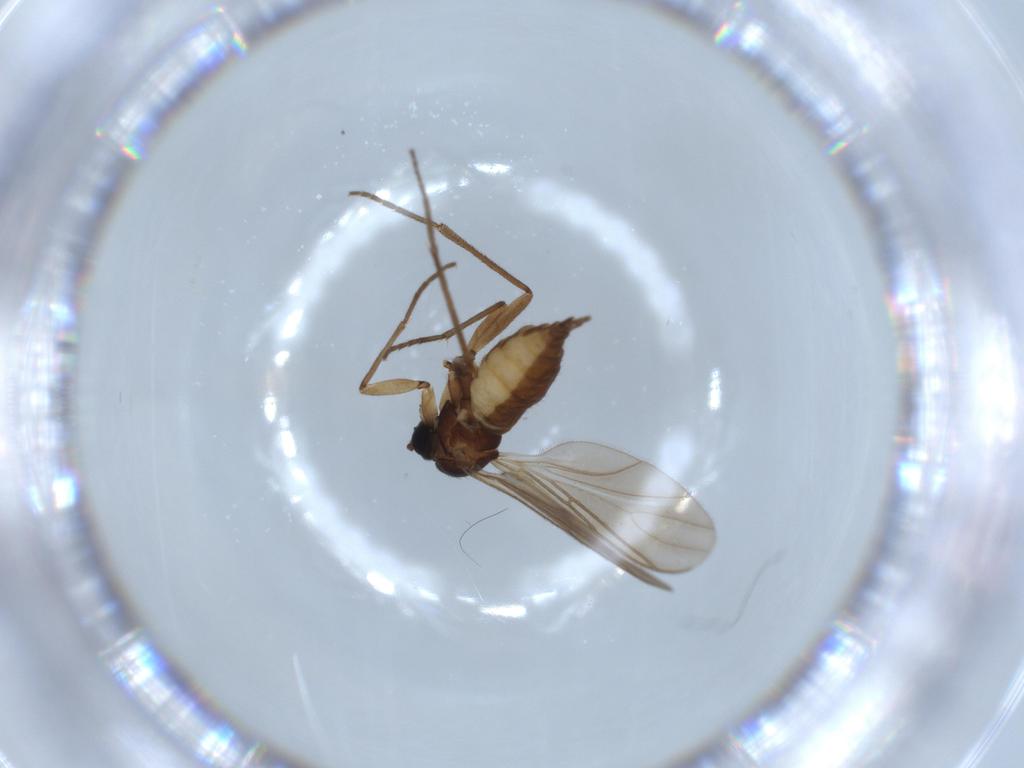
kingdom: Animalia
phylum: Arthropoda
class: Insecta
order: Diptera
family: Sciaridae
